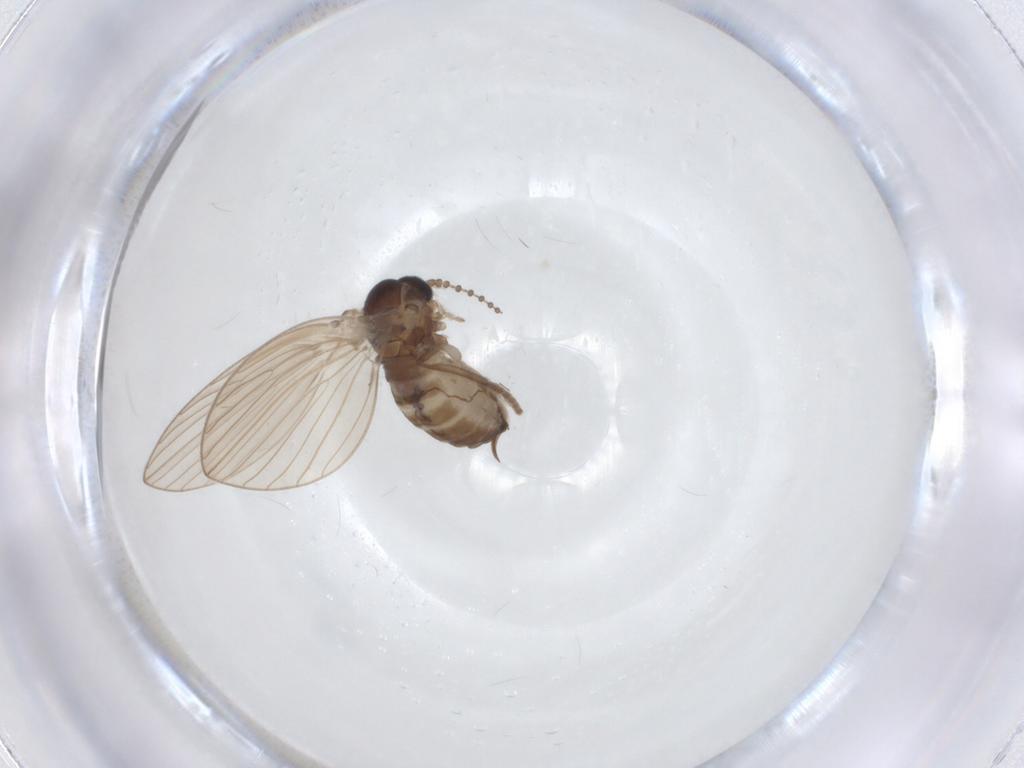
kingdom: Animalia
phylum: Arthropoda
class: Insecta
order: Diptera
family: Psychodidae
